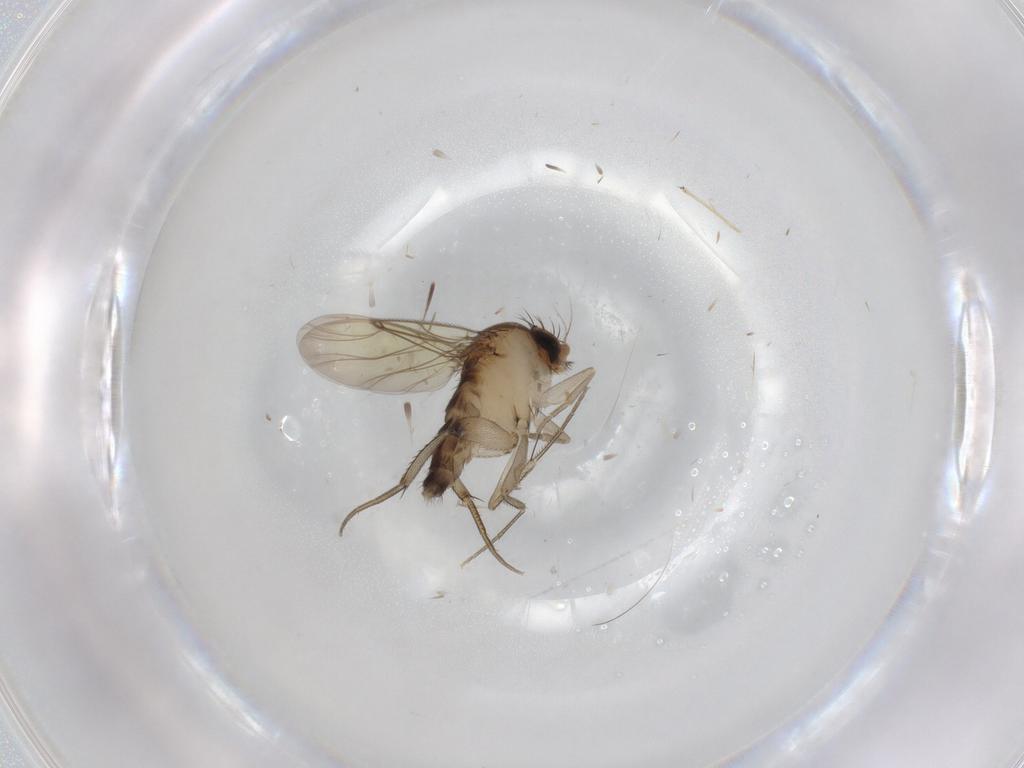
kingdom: Animalia
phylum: Arthropoda
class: Insecta
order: Diptera
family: Phoridae
